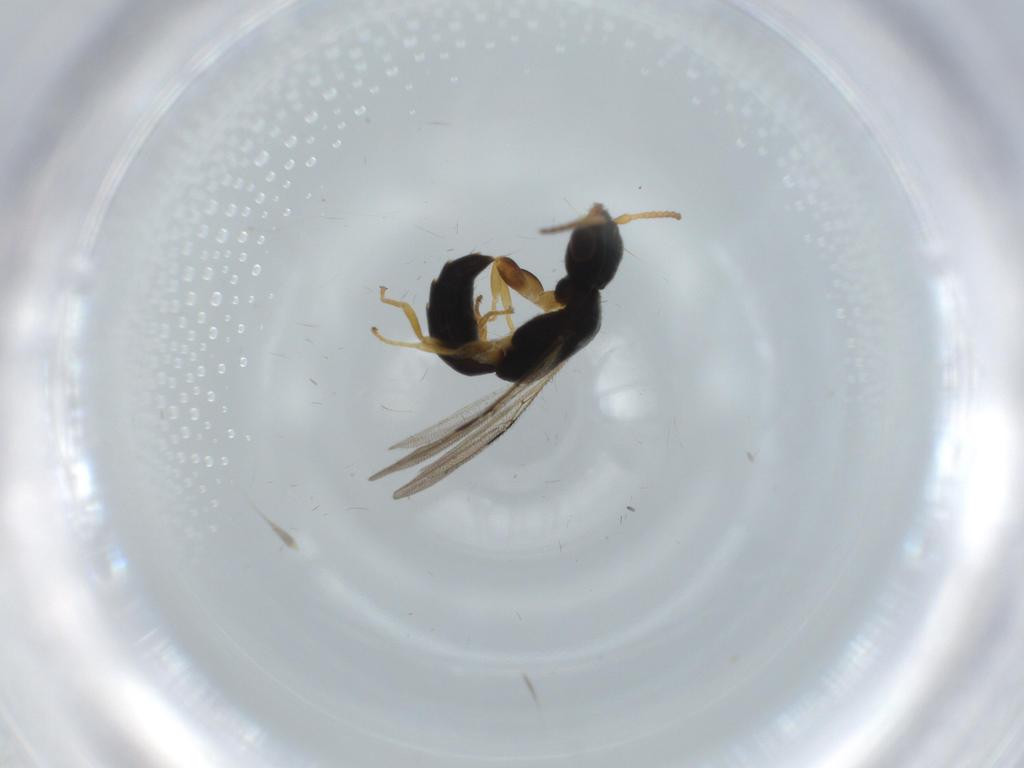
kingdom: Animalia
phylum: Arthropoda
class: Insecta
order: Hymenoptera
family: Bethylidae
